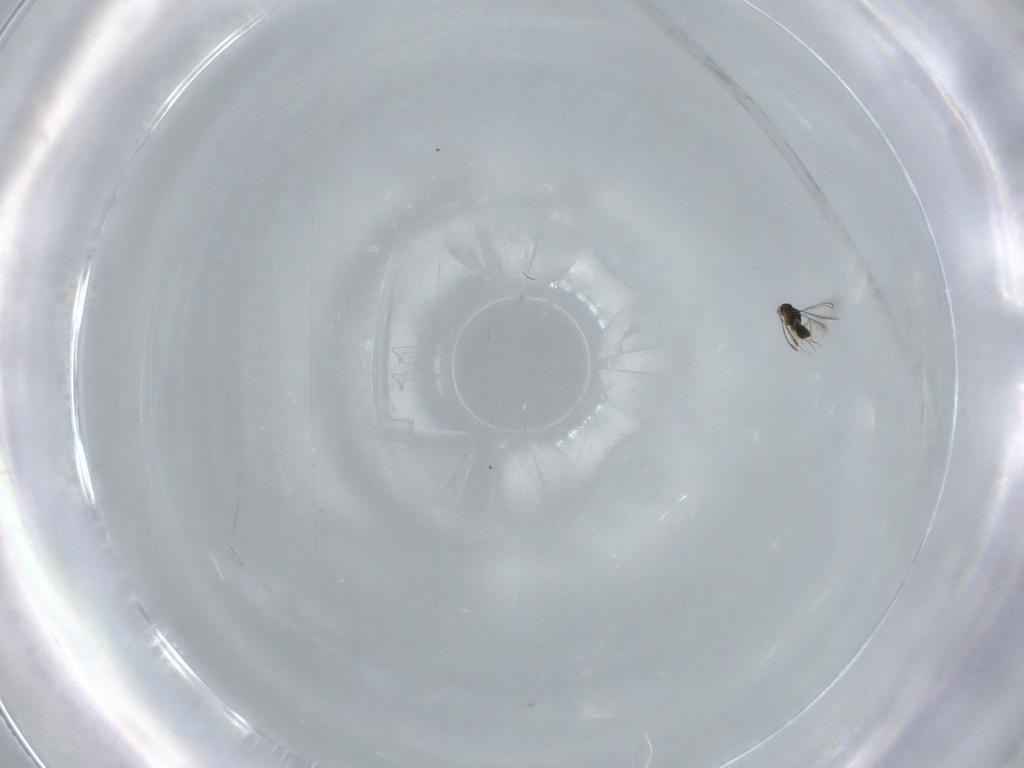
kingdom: Animalia
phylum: Arthropoda
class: Insecta
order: Hymenoptera
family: Mymaridae
